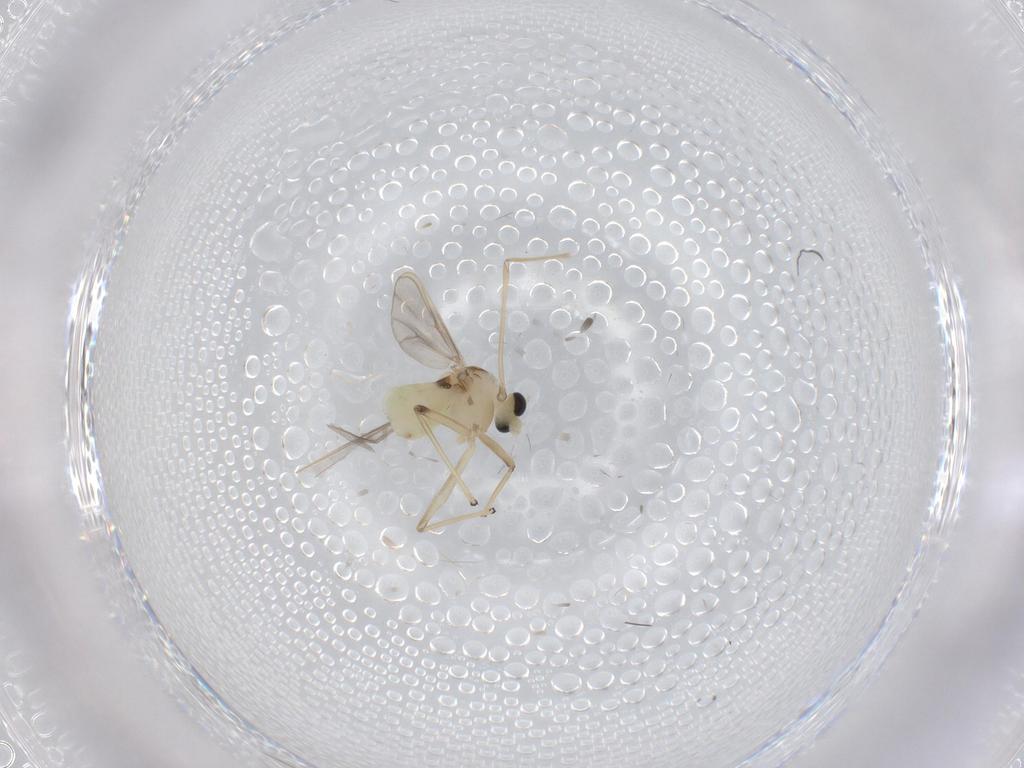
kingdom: Animalia
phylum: Arthropoda
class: Insecta
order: Diptera
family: Chironomidae
